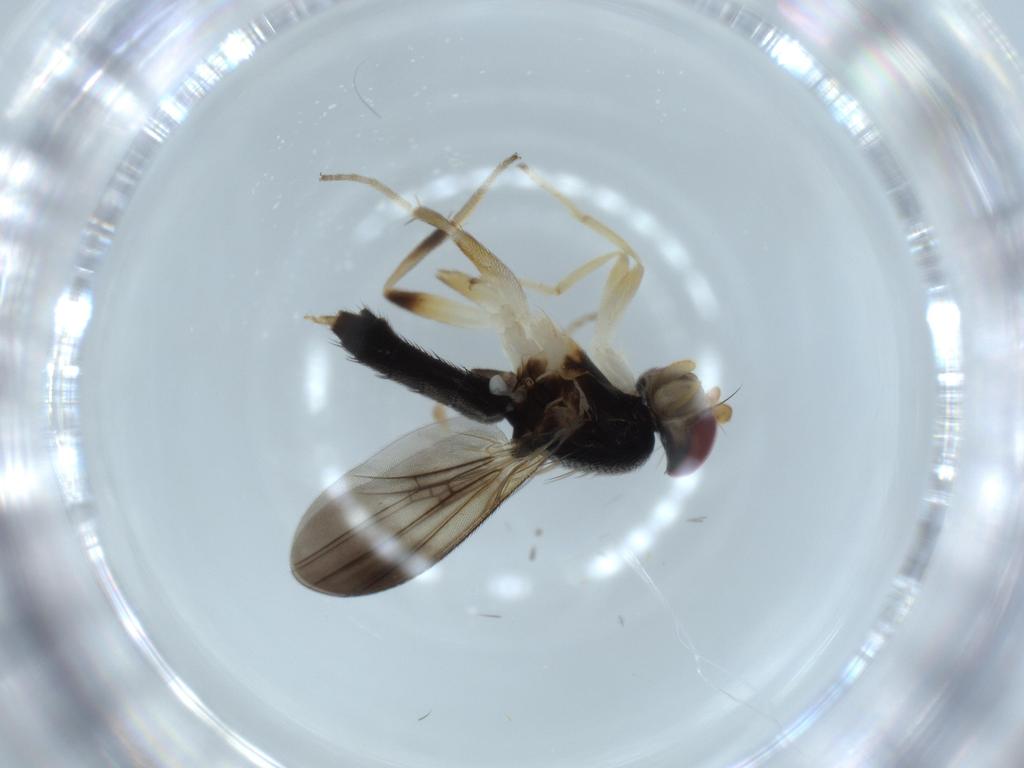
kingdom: Animalia
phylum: Arthropoda
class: Insecta
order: Diptera
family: Clusiidae
